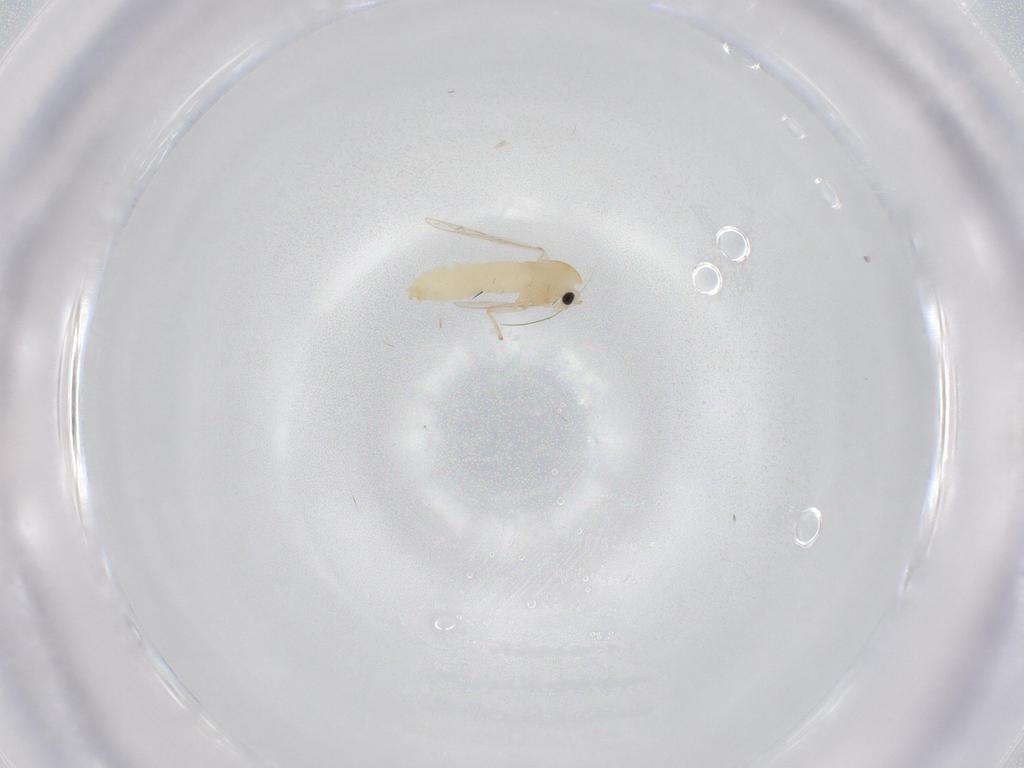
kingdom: Animalia
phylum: Arthropoda
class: Insecta
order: Diptera
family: Chironomidae
